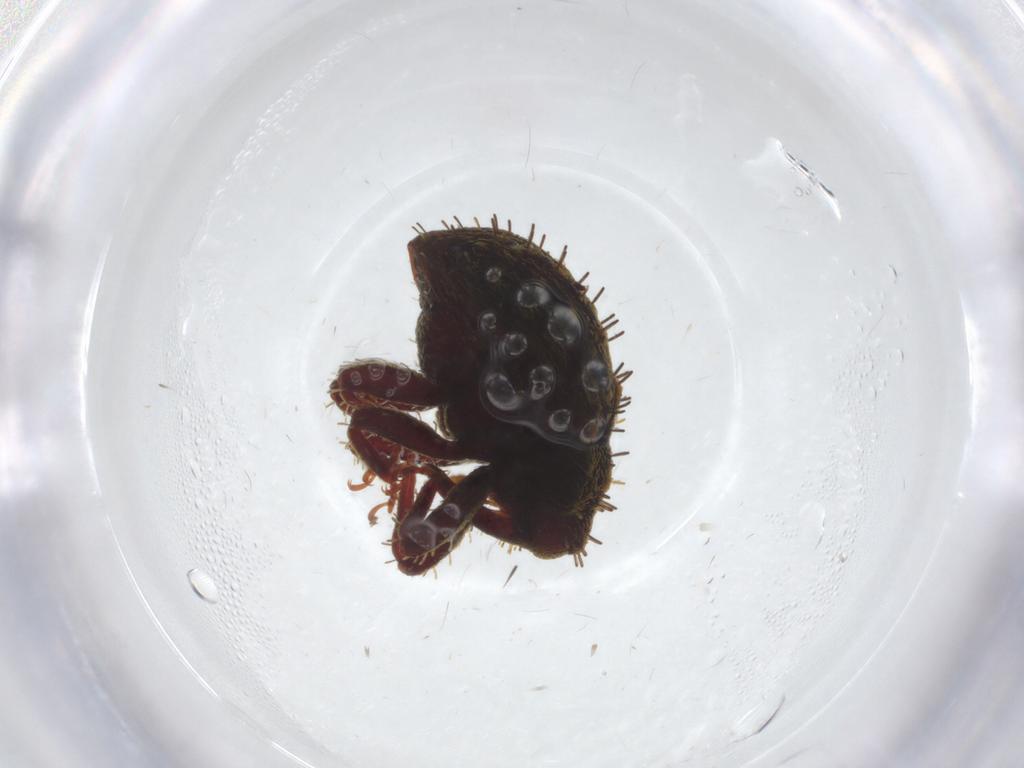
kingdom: Animalia
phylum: Arthropoda
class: Insecta
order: Coleoptera
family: Curculionidae
